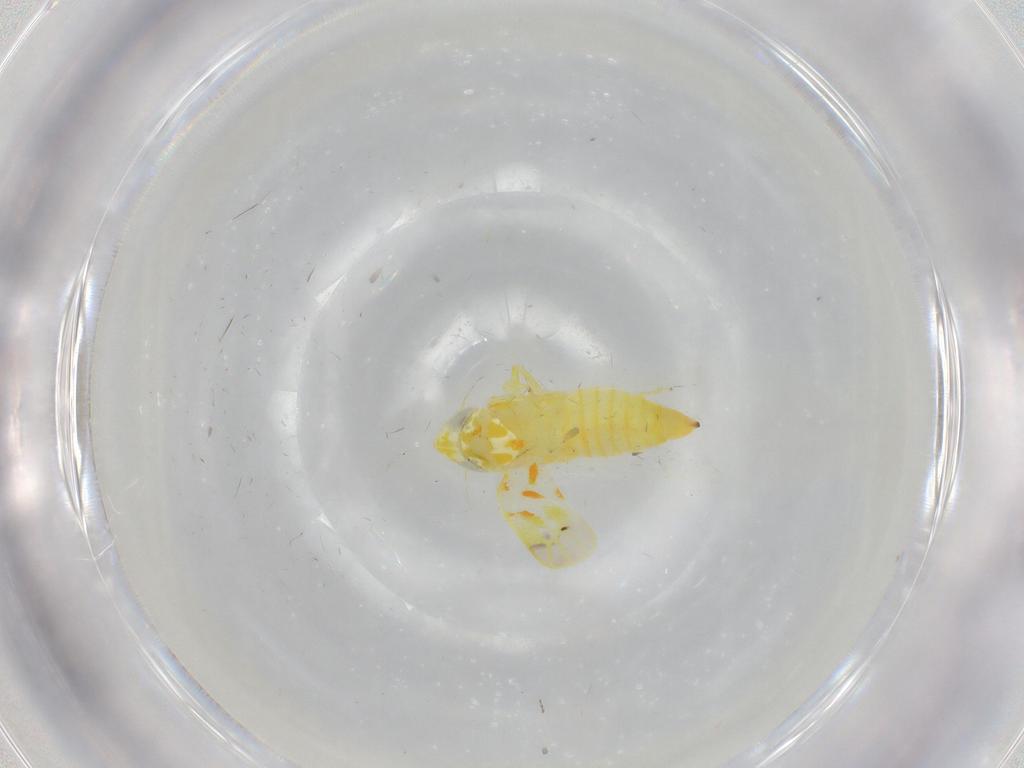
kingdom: Animalia
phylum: Arthropoda
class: Insecta
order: Hemiptera
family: Cicadellidae
